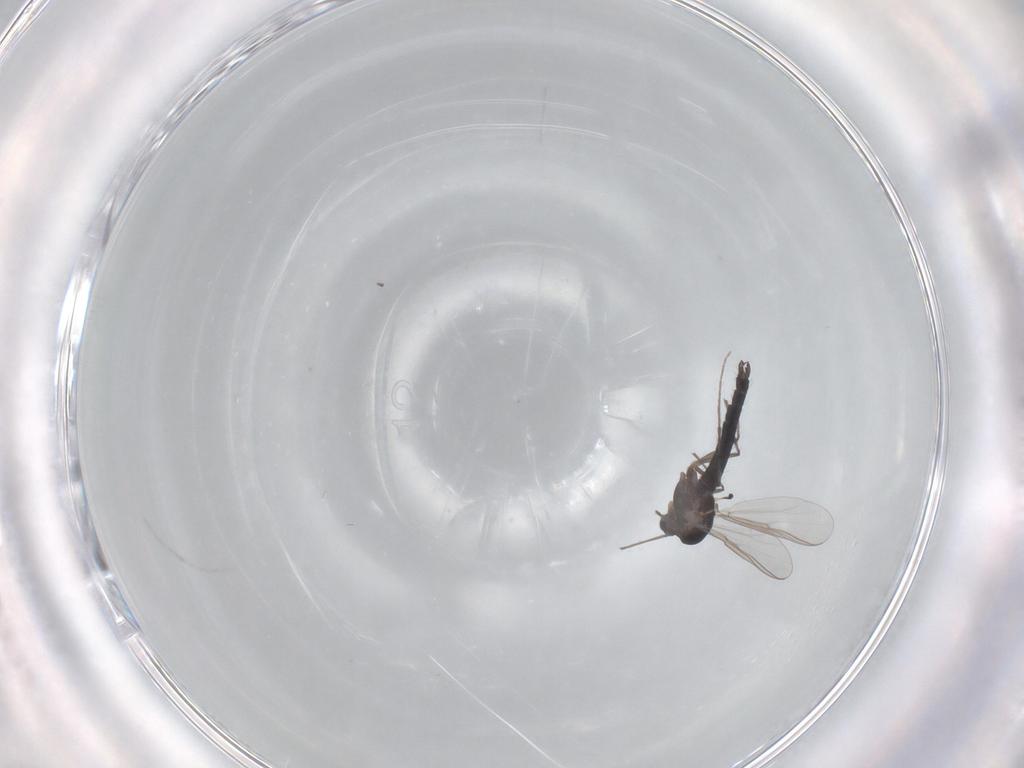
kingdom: Animalia
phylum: Arthropoda
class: Insecta
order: Diptera
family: Chironomidae
